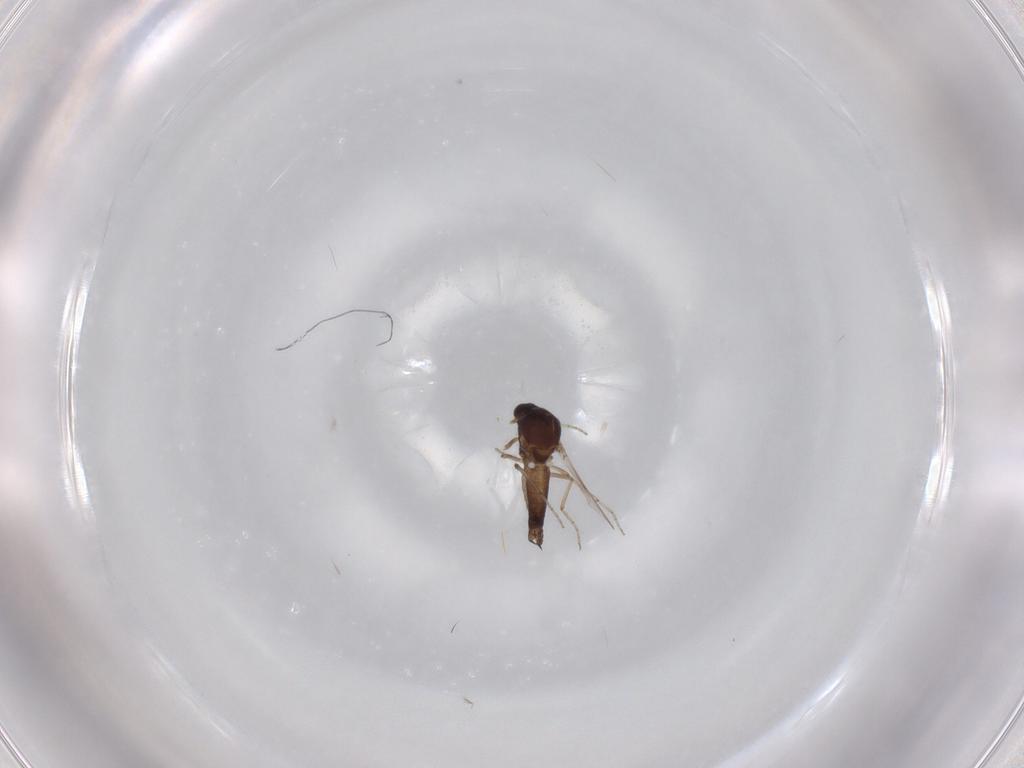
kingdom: Animalia
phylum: Arthropoda
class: Insecta
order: Diptera
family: Ceratopogonidae
